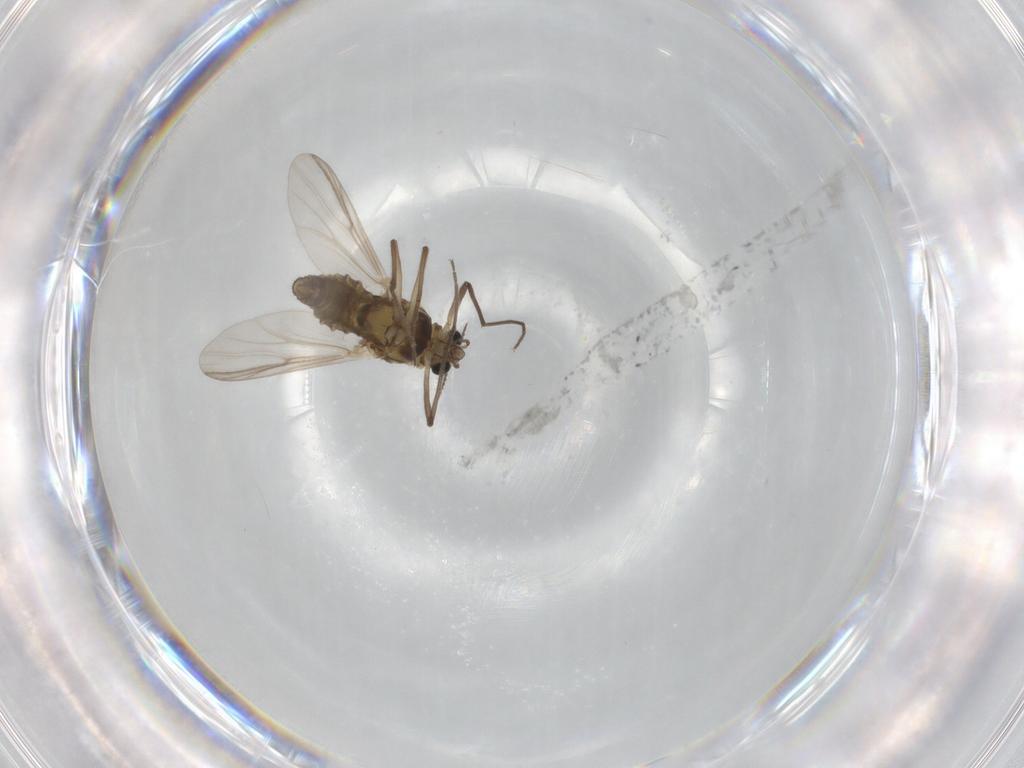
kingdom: Animalia
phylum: Arthropoda
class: Insecta
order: Diptera
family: Chironomidae
